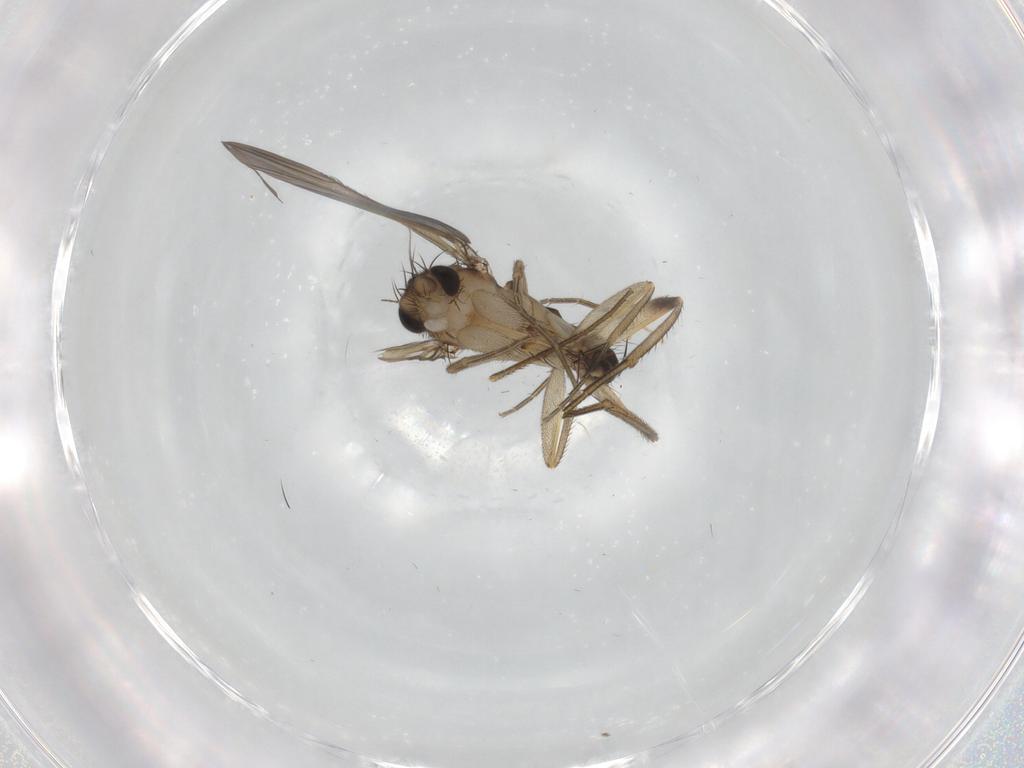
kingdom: Animalia
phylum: Arthropoda
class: Insecta
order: Diptera
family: Phoridae
